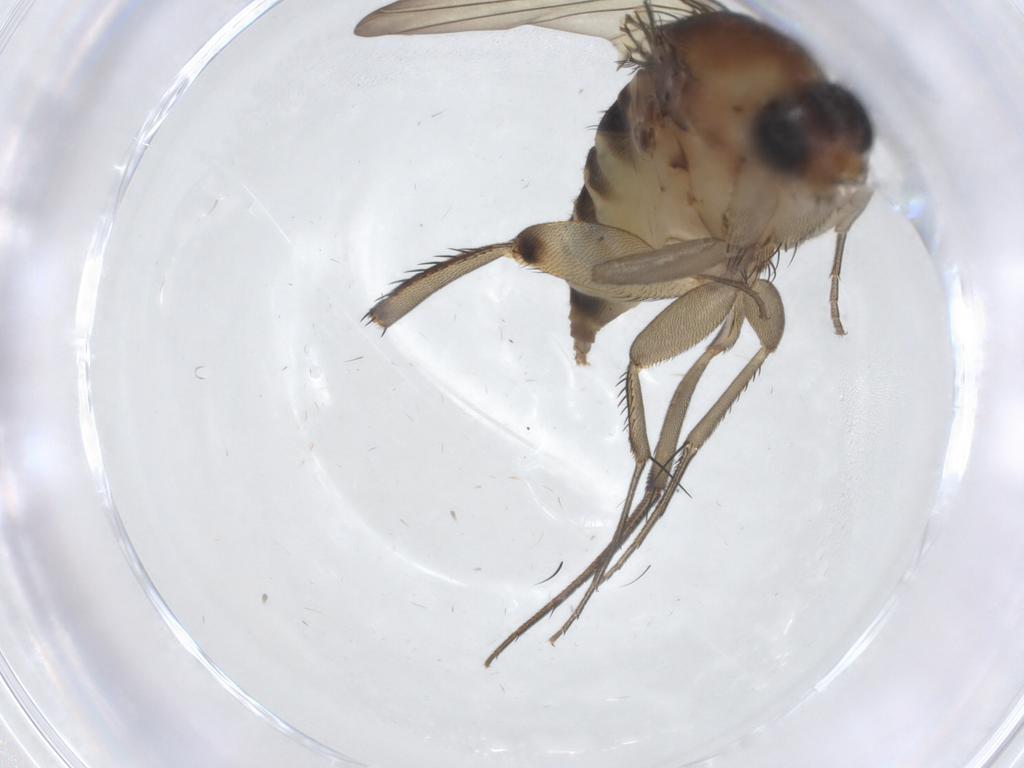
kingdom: Animalia
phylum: Arthropoda
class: Insecta
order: Diptera
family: Phoridae
